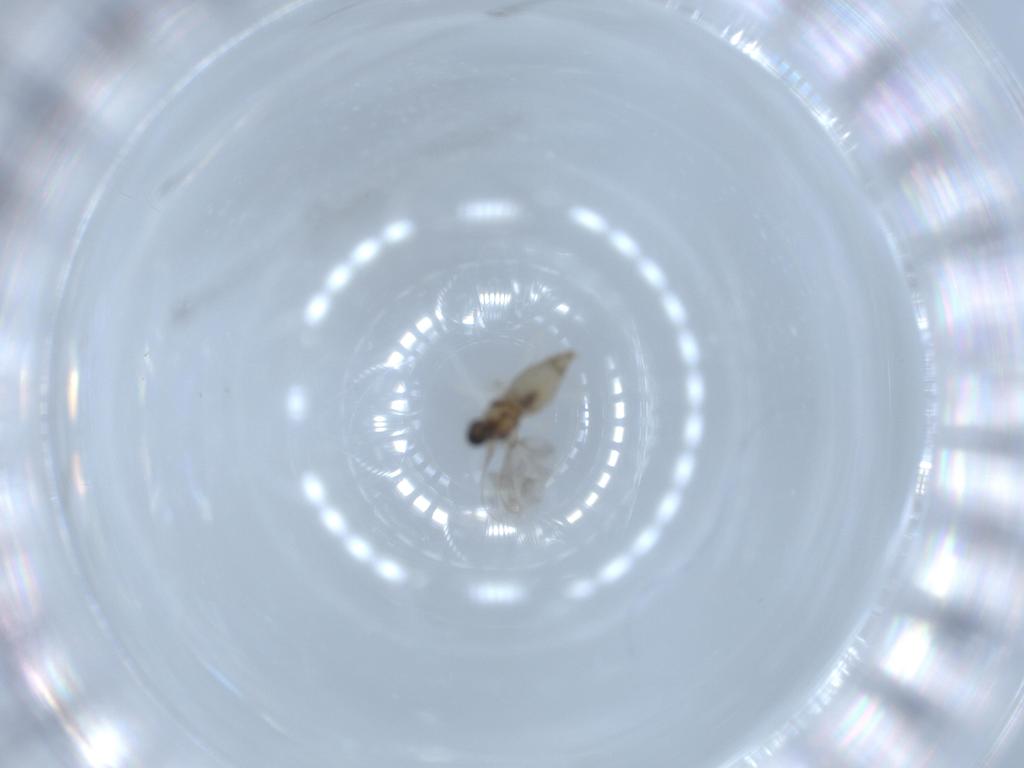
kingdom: Animalia
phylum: Arthropoda
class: Insecta
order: Diptera
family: Cecidomyiidae
